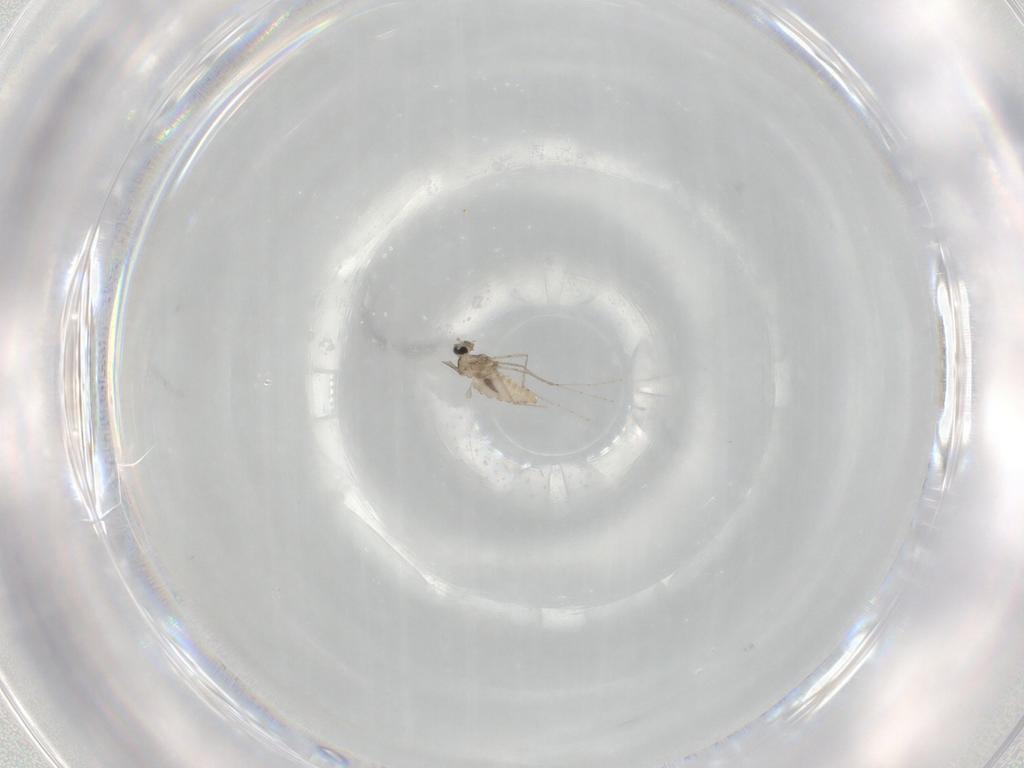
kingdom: Animalia
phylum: Arthropoda
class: Insecta
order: Diptera
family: Cecidomyiidae
